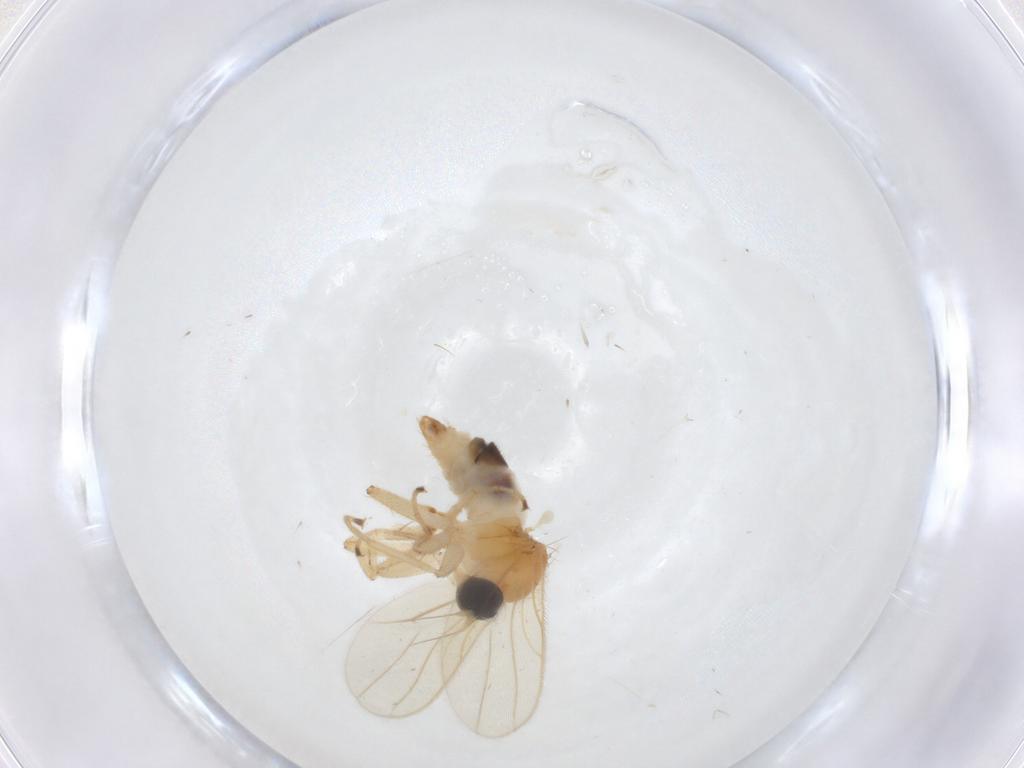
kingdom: Animalia
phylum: Arthropoda
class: Insecta
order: Diptera
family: Hybotidae
